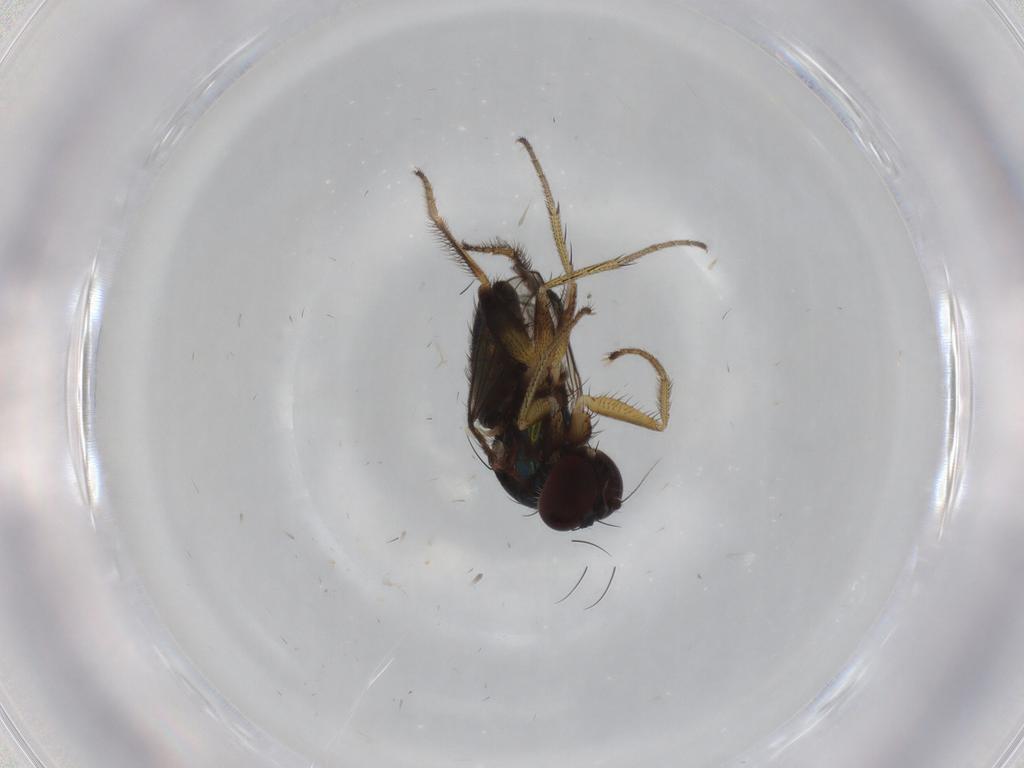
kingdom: Animalia
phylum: Arthropoda
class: Insecta
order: Diptera
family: Dolichopodidae
